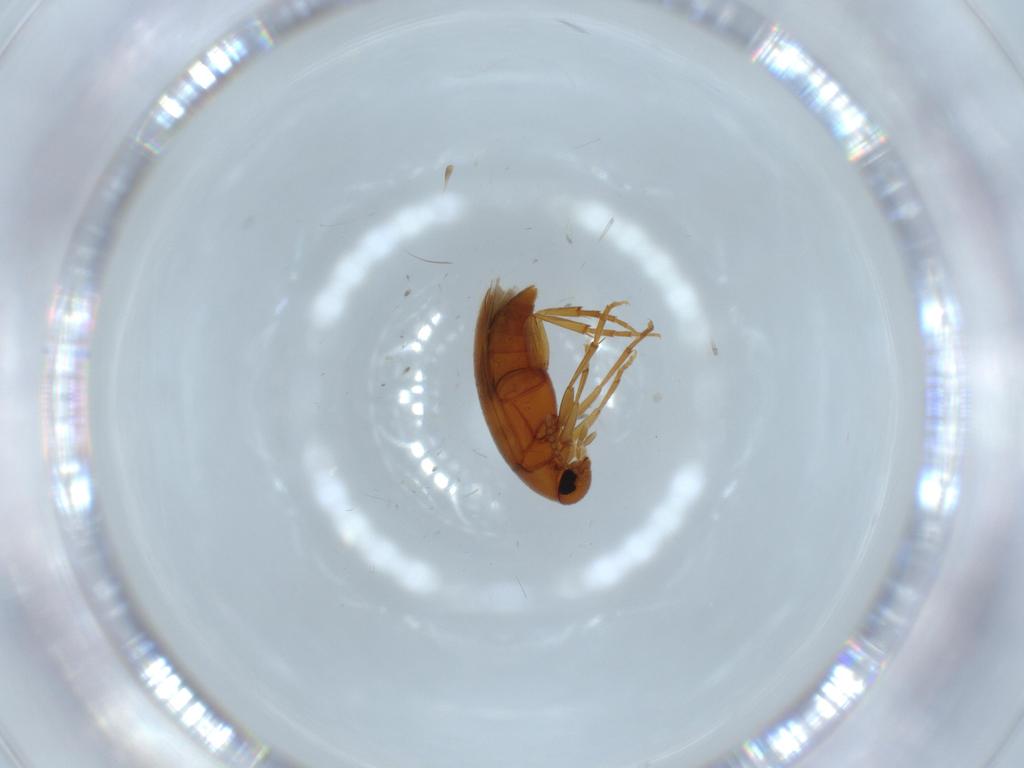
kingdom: Animalia
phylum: Arthropoda
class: Insecta
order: Coleoptera
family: Scraptiidae
